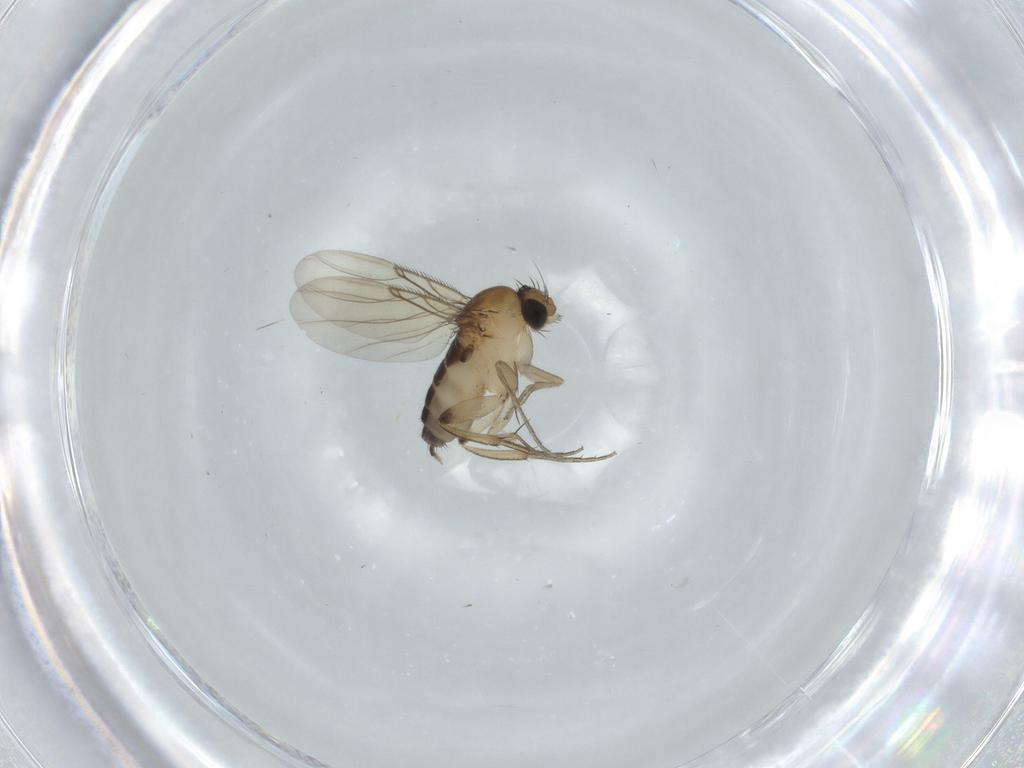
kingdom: Animalia
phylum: Arthropoda
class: Insecta
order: Diptera
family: Phoridae
